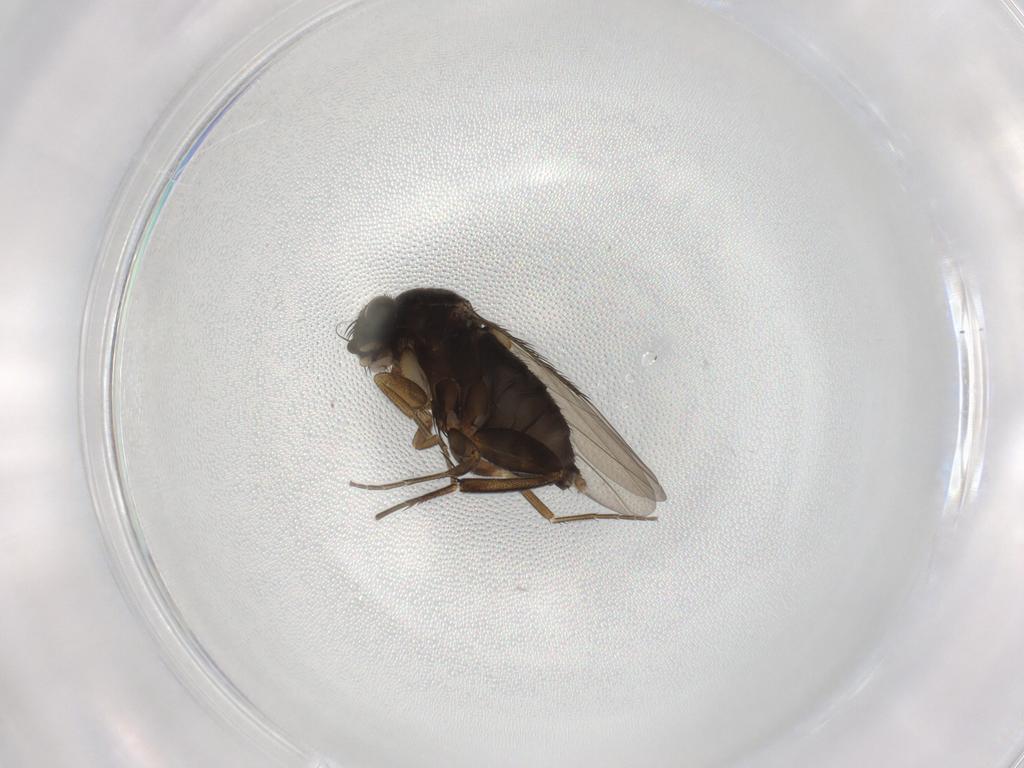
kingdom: Animalia
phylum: Arthropoda
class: Insecta
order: Diptera
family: Phoridae
